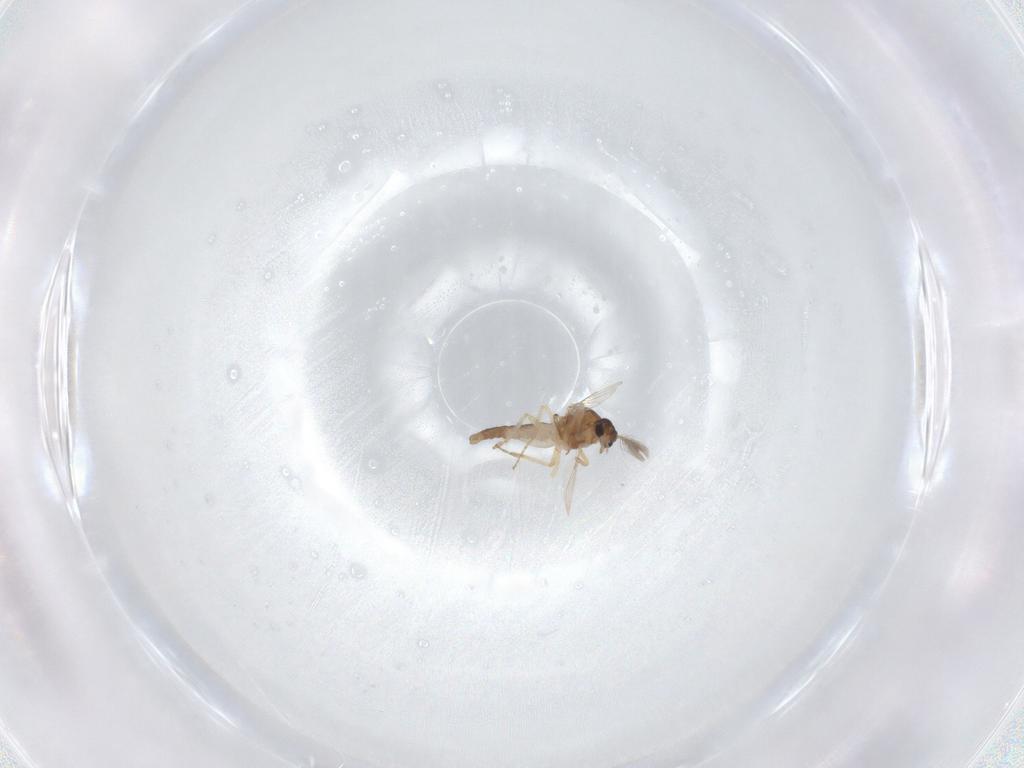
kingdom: Animalia
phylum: Arthropoda
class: Insecta
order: Diptera
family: Ceratopogonidae
